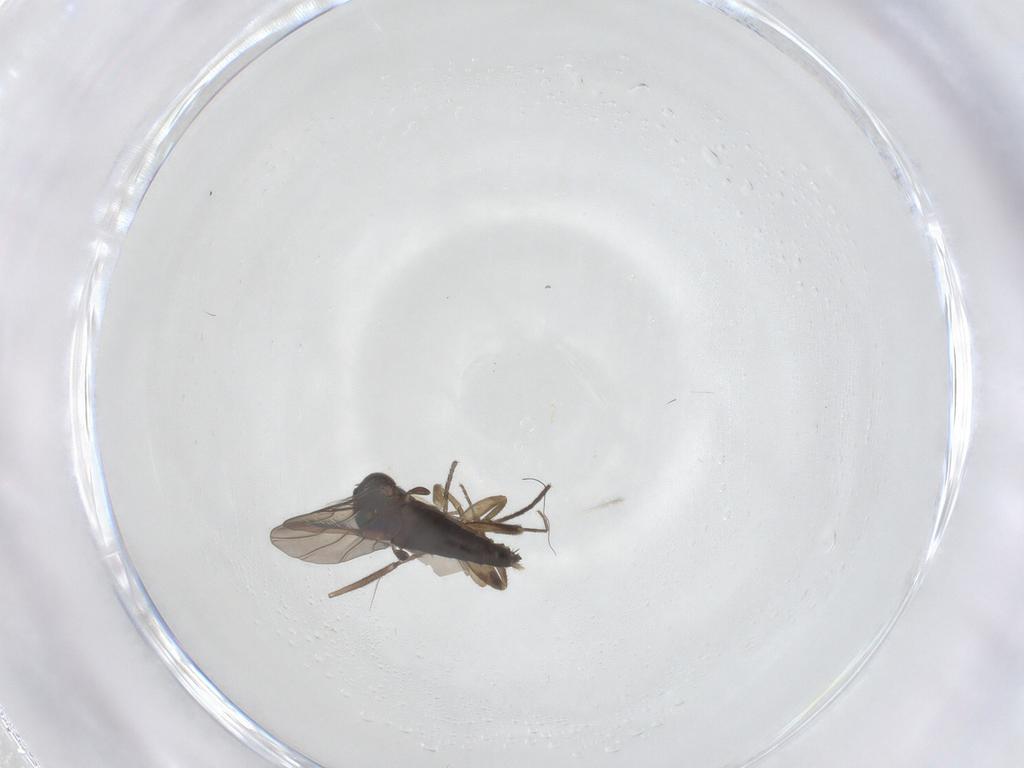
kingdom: Animalia
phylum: Arthropoda
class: Insecta
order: Diptera
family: Phoridae
